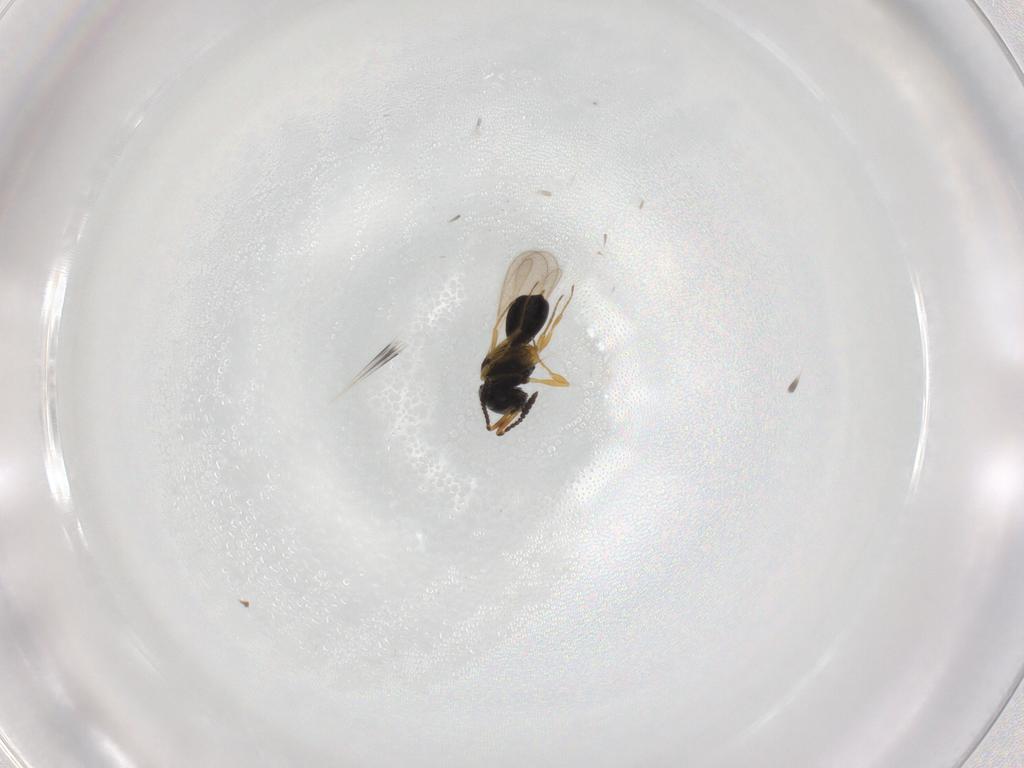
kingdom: Animalia
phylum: Arthropoda
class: Insecta
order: Hymenoptera
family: Scelionidae
